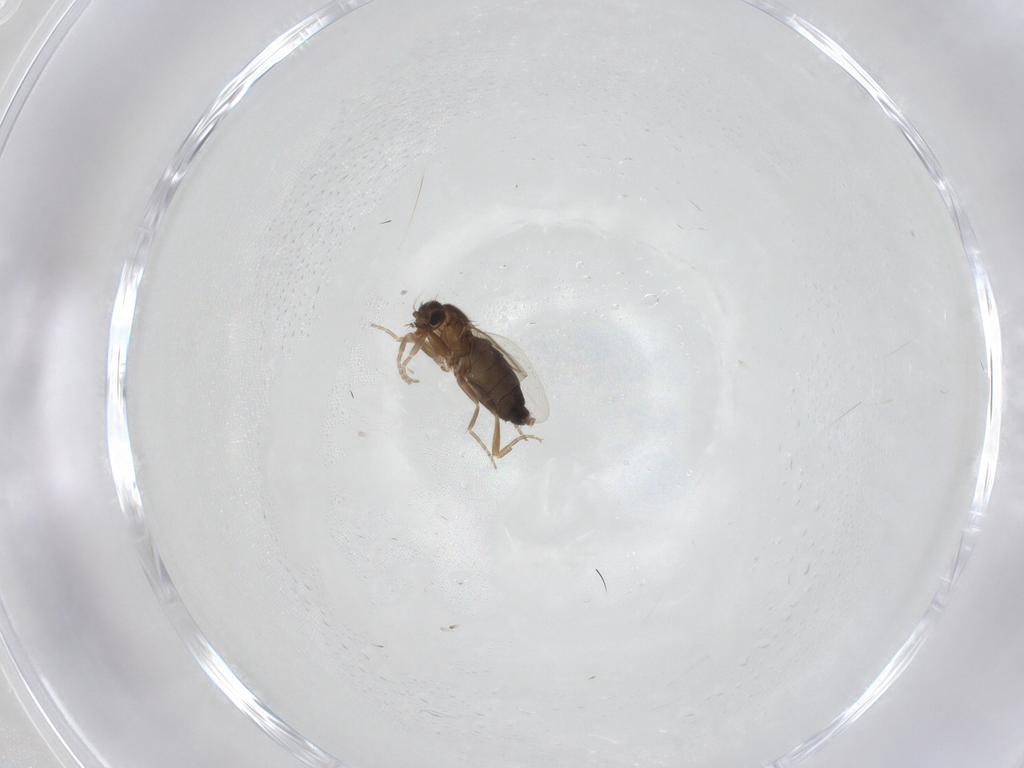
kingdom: Animalia
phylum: Arthropoda
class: Insecta
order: Diptera
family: Phoridae
